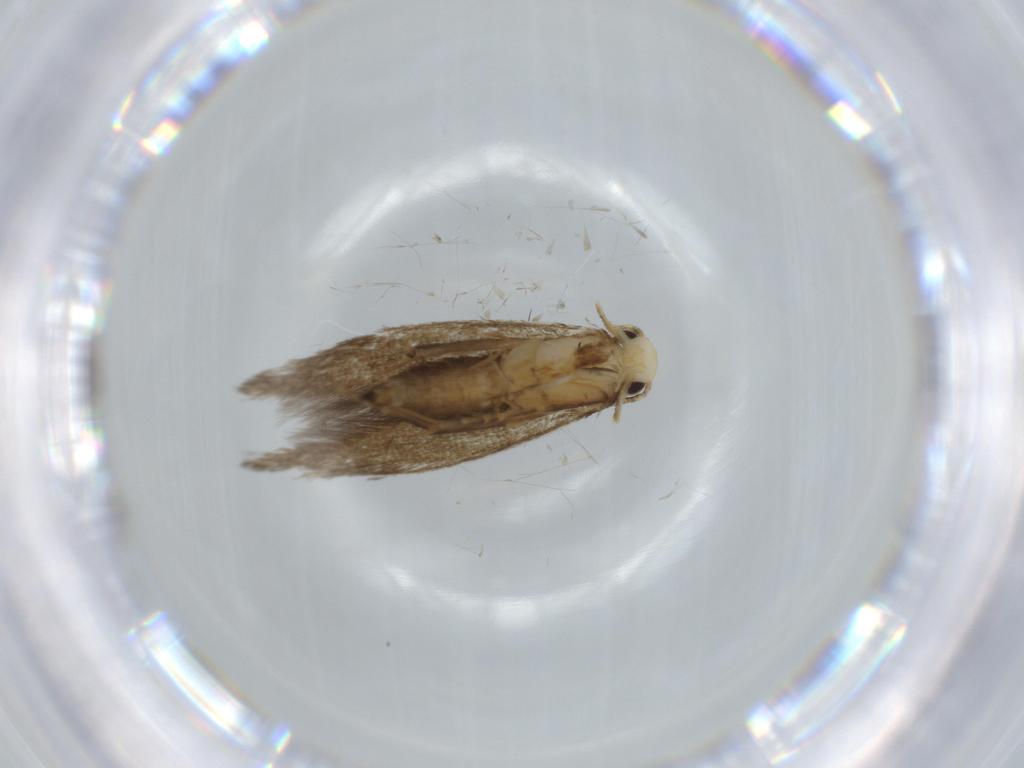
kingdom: Animalia
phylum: Arthropoda
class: Insecta
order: Lepidoptera
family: Tineidae
